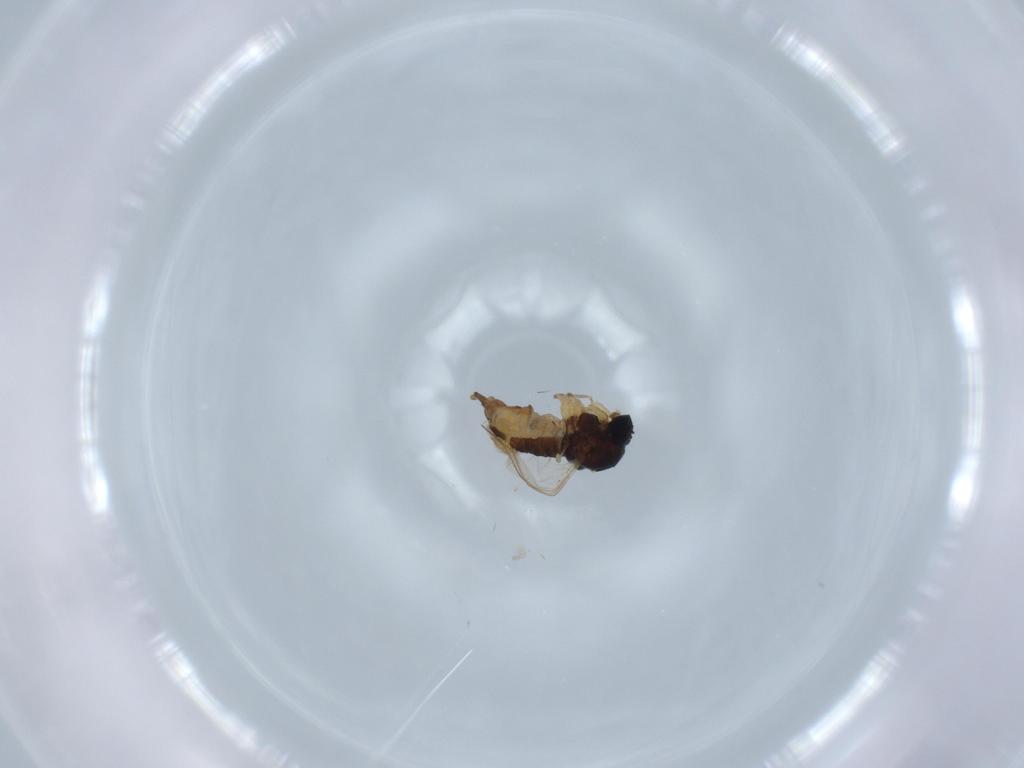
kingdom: Animalia
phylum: Arthropoda
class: Insecta
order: Diptera
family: Sciaridae
